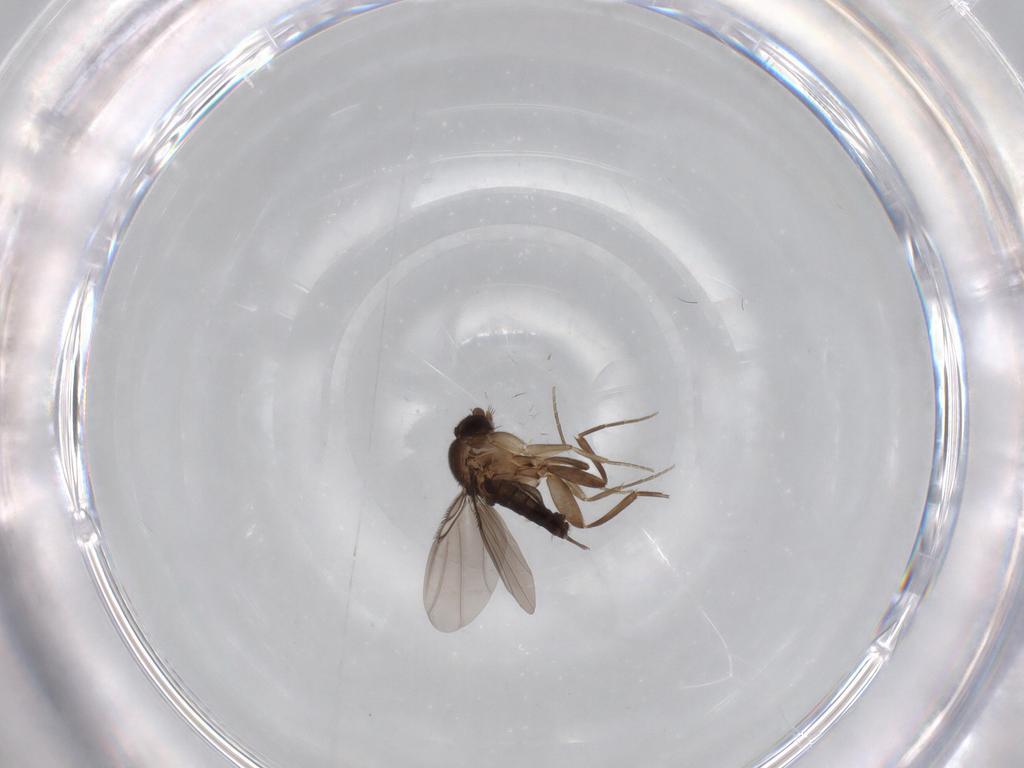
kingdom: Animalia
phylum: Arthropoda
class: Insecta
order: Diptera
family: Phoridae
